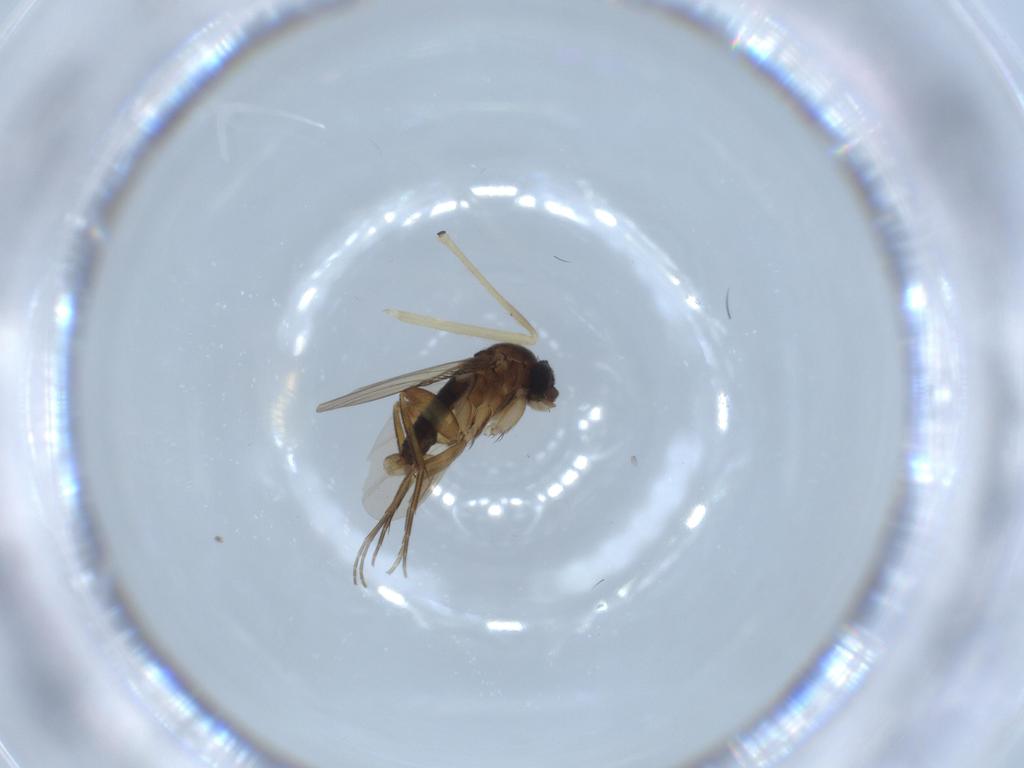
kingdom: Animalia
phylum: Arthropoda
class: Insecta
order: Diptera
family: Phoridae
